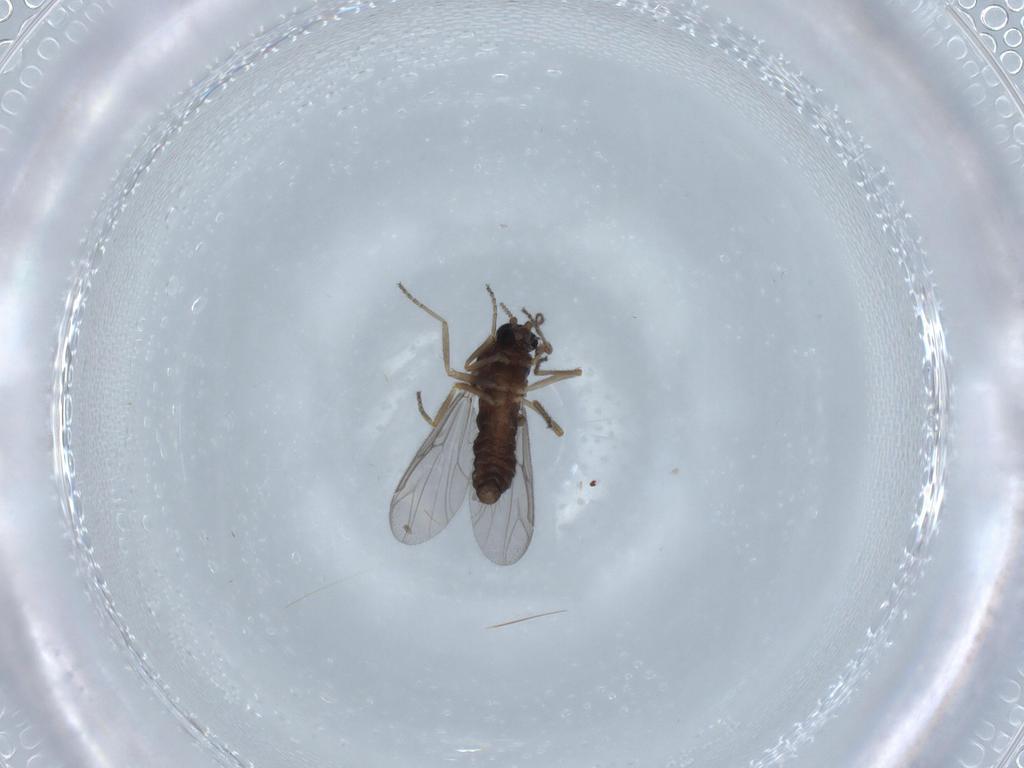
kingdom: Animalia
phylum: Arthropoda
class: Insecta
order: Diptera
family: Ceratopogonidae
